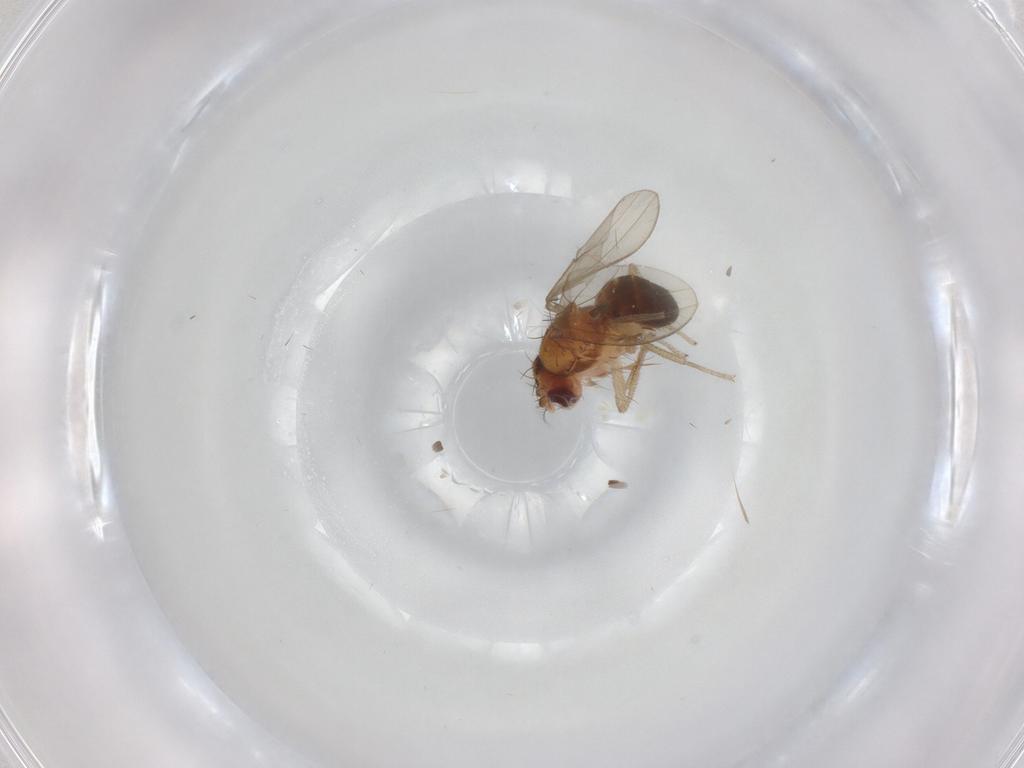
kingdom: Animalia
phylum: Arthropoda
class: Insecta
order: Diptera
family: Drosophilidae
